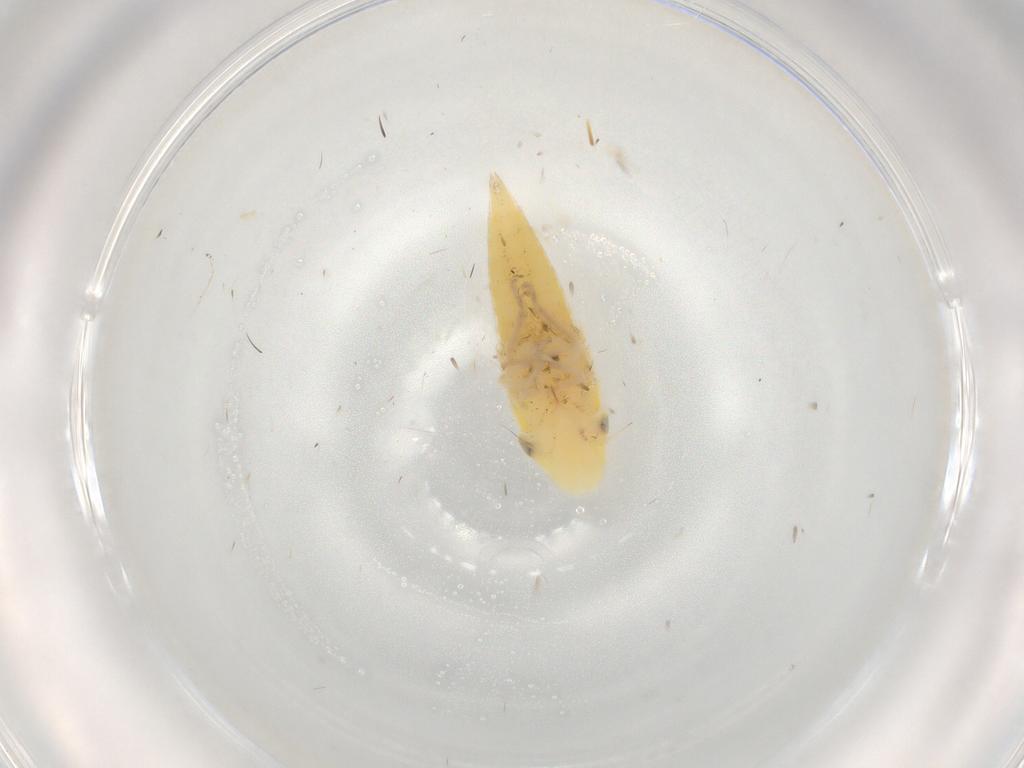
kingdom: Animalia
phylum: Arthropoda
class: Insecta
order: Hemiptera
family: Cicadellidae
